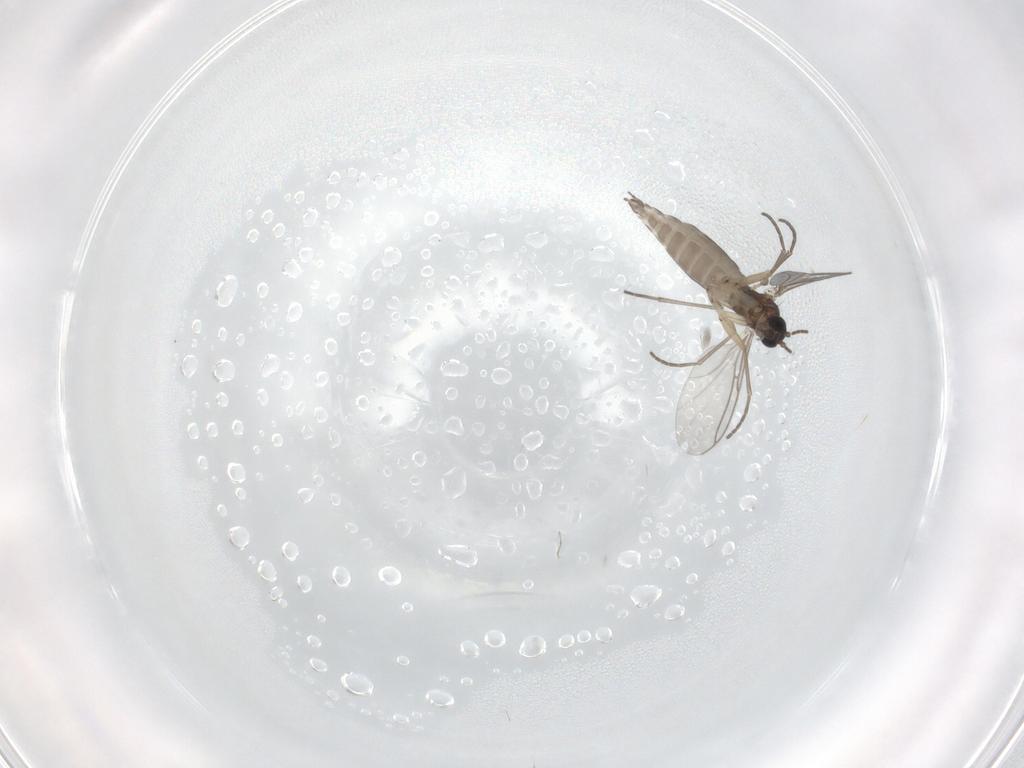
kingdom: Animalia
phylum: Arthropoda
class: Insecta
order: Diptera
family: Sciaridae
